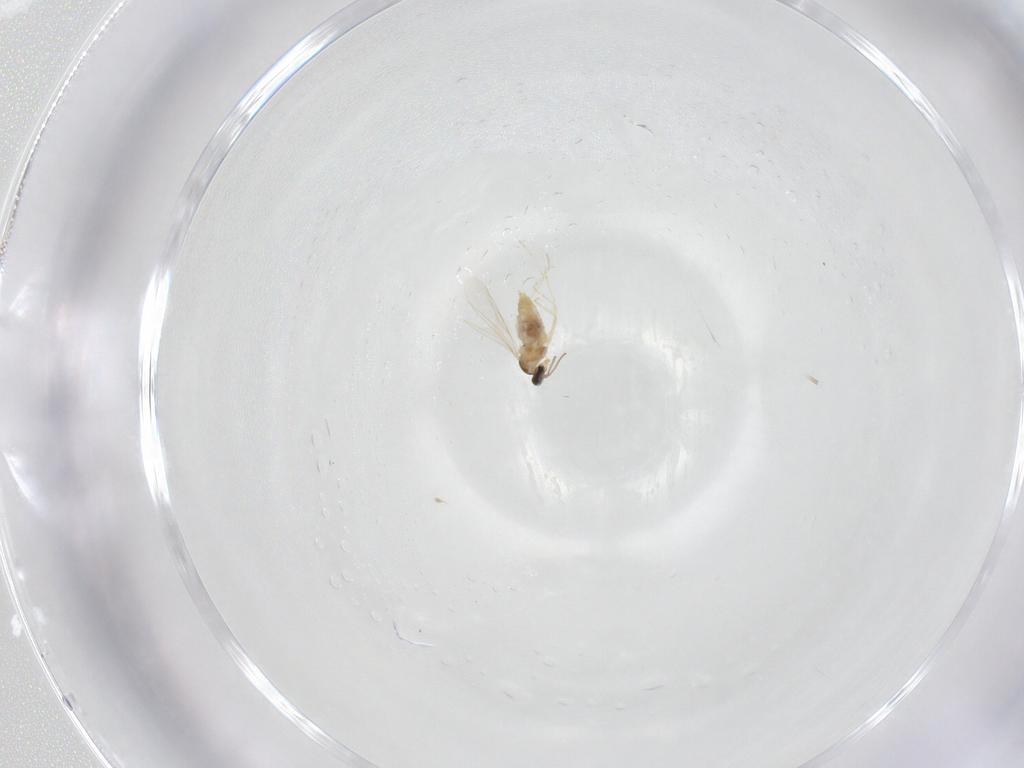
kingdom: Animalia
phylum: Arthropoda
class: Insecta
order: Diptera
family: Cecidomyiidae
